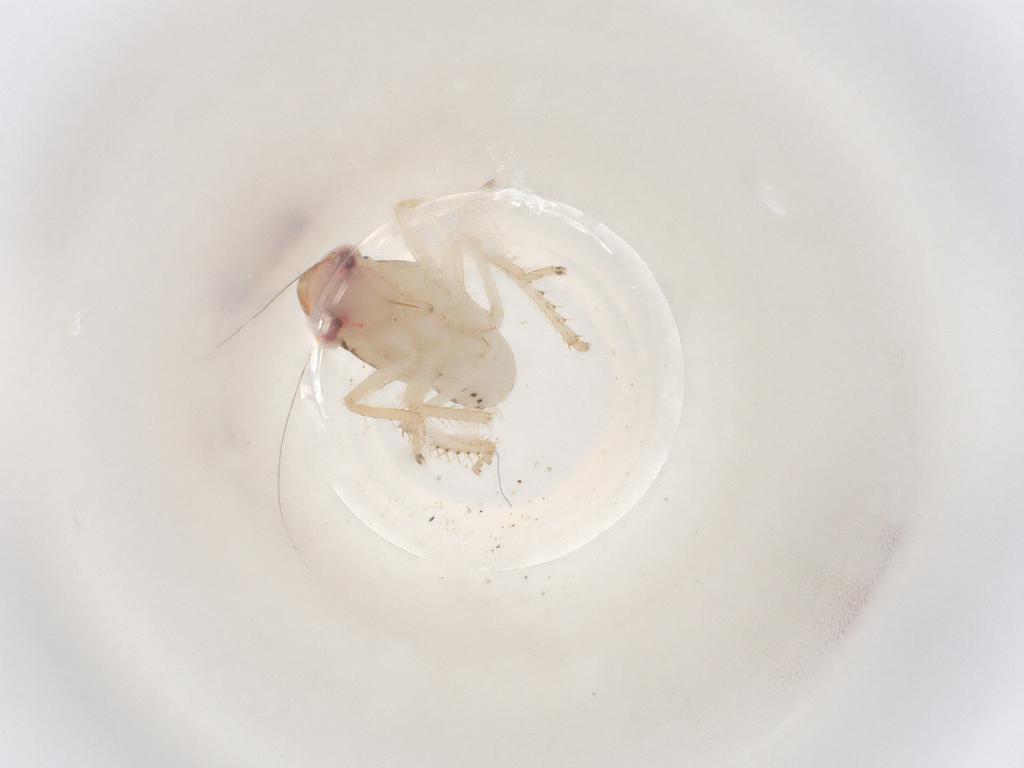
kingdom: Animalia
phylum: Arthropoda
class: Insecta
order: Hemiptera
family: Cicadellidae
